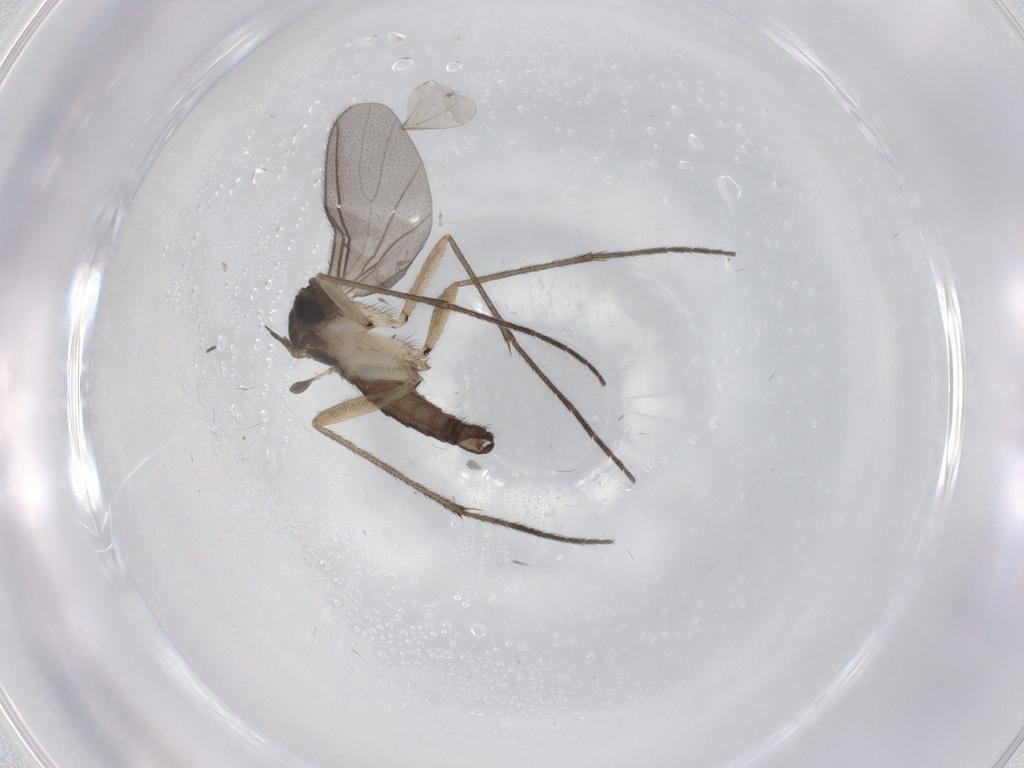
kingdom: Animalia
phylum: Arthropoda
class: Insecta
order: Diptera
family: Sciaridae
